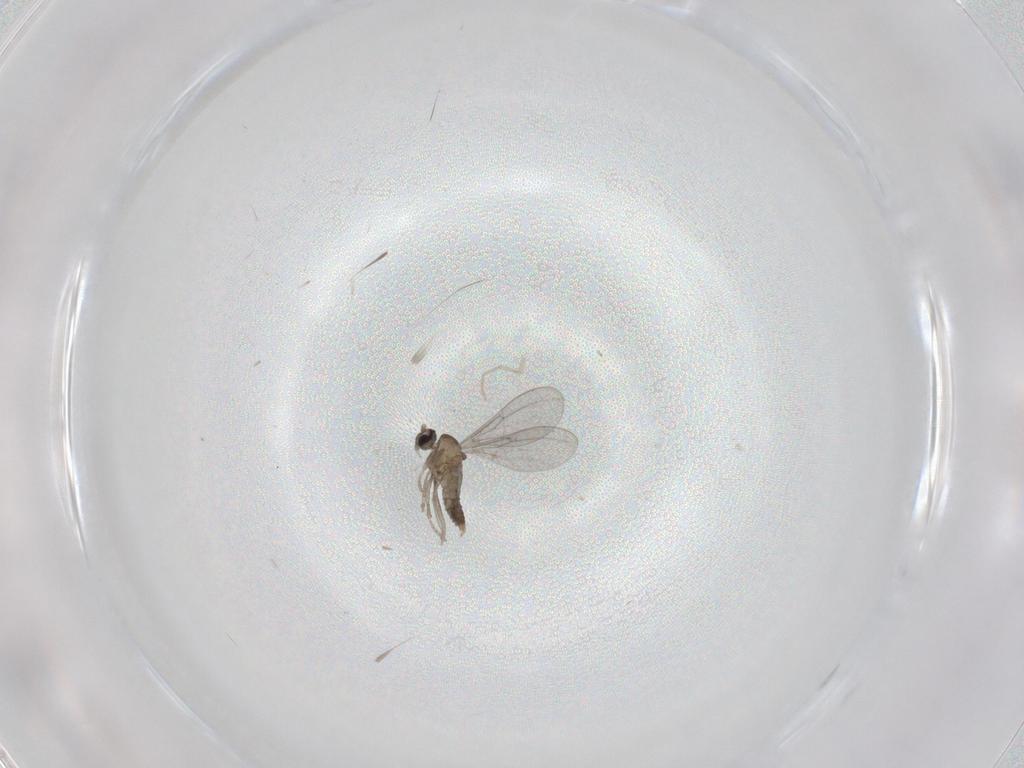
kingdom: Animalia
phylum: Arthropoda
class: Insecta
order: Diptera
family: Cecidomyiidae
